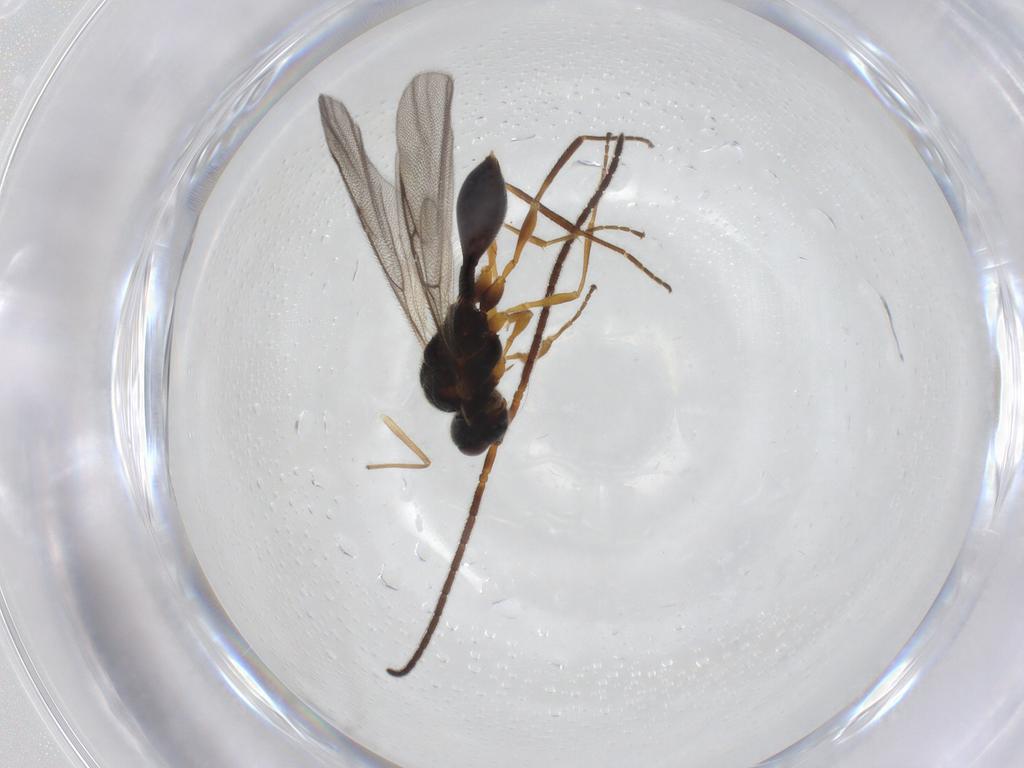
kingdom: Animalia
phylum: Arthropoda
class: Insecta
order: Hymenoptera
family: Diapriidae
